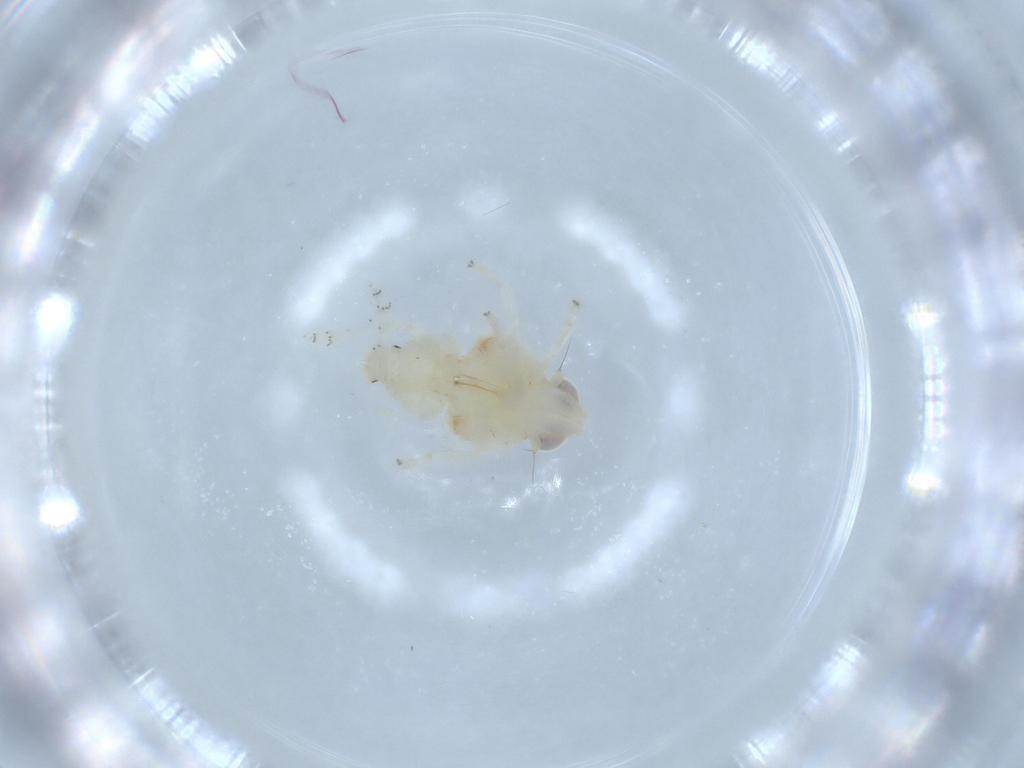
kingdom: Animalia
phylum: Arthropoda
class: Insecta
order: Hemiptera
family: Nogodinidae
